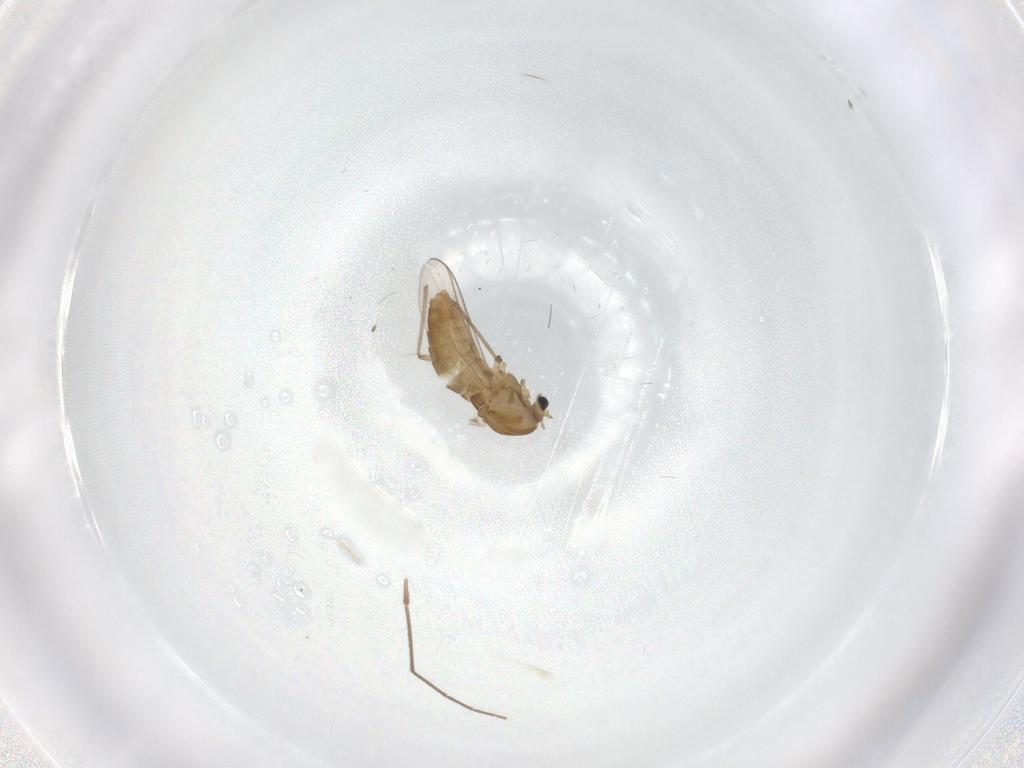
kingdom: Animalia
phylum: Arthropoda
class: Insecta
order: Diptera
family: Chironomidae
